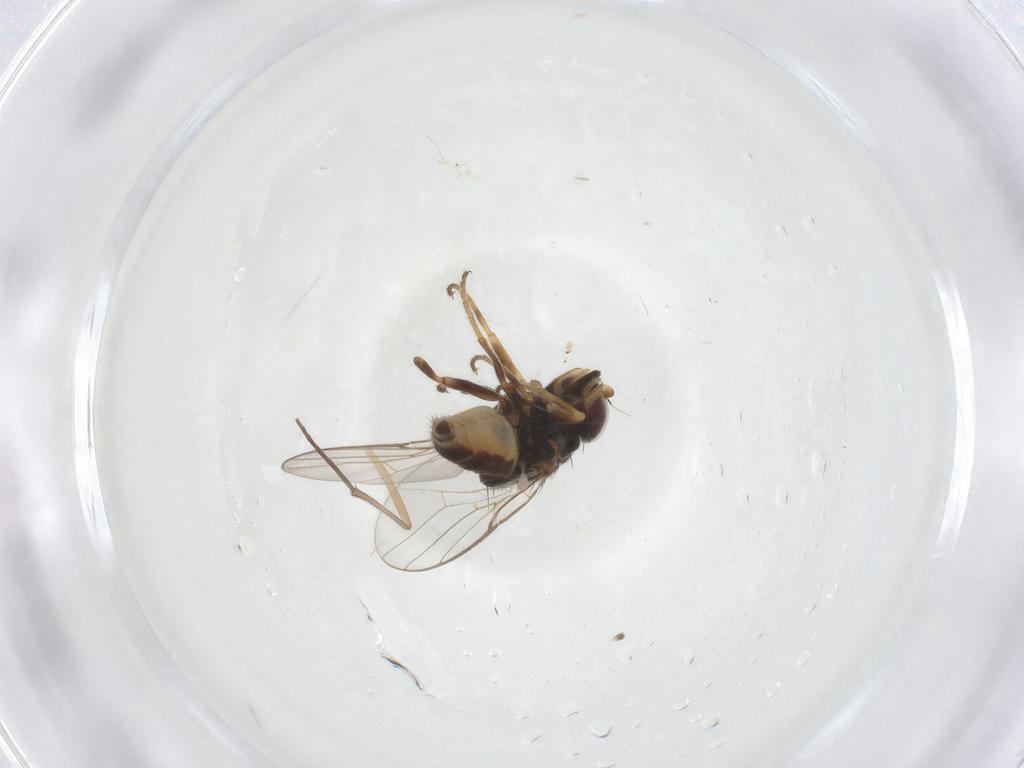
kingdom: Animalia
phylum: Arthropoda
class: Insecta
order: Diptera
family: Chloropidae
